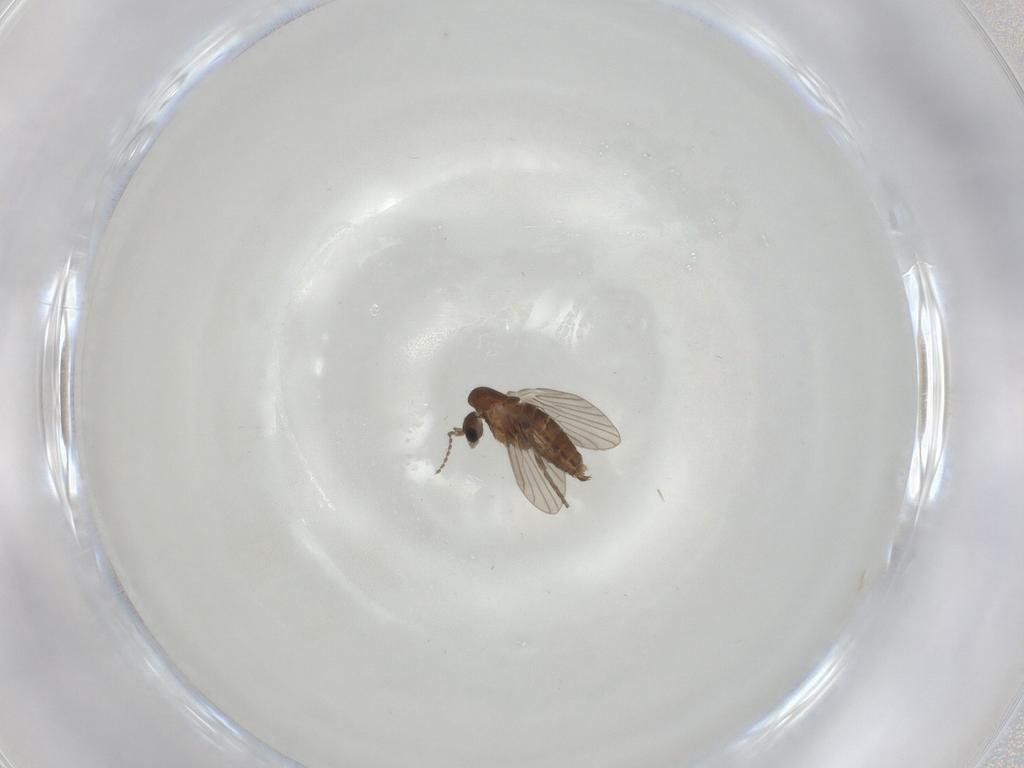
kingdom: Animalia
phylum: Arthropoda
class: Insecta
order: Diptera
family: Psychodidae
